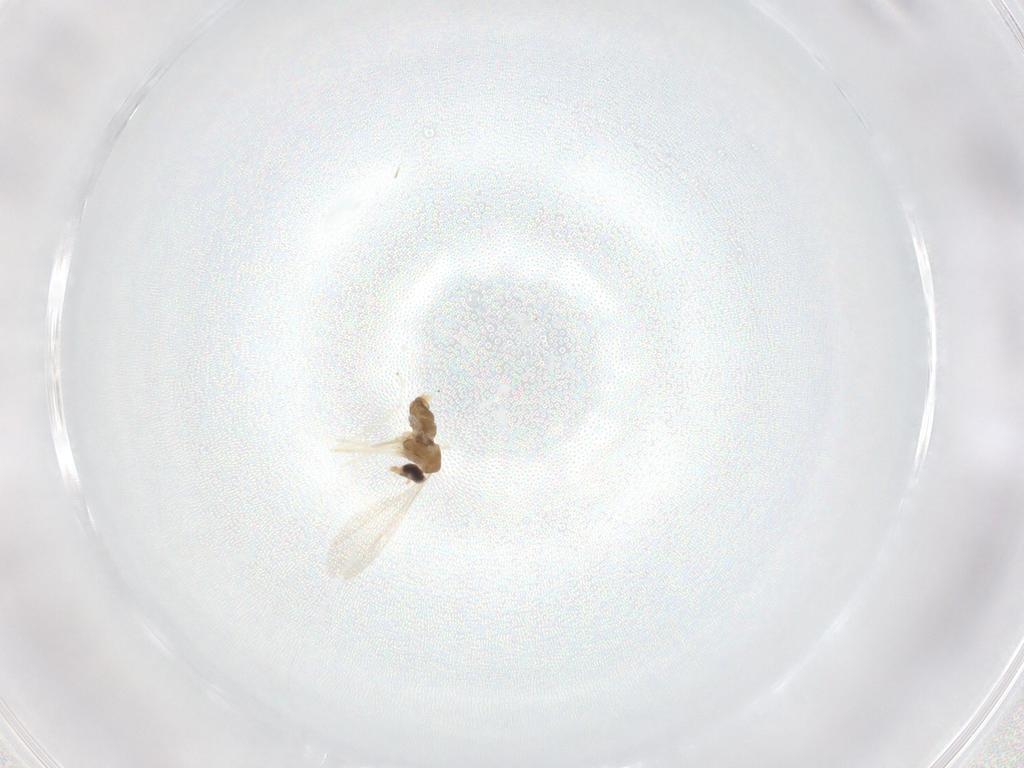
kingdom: Animalia
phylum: Arthropoda
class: Insecta
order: Diptera
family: Cecidomyiidae
